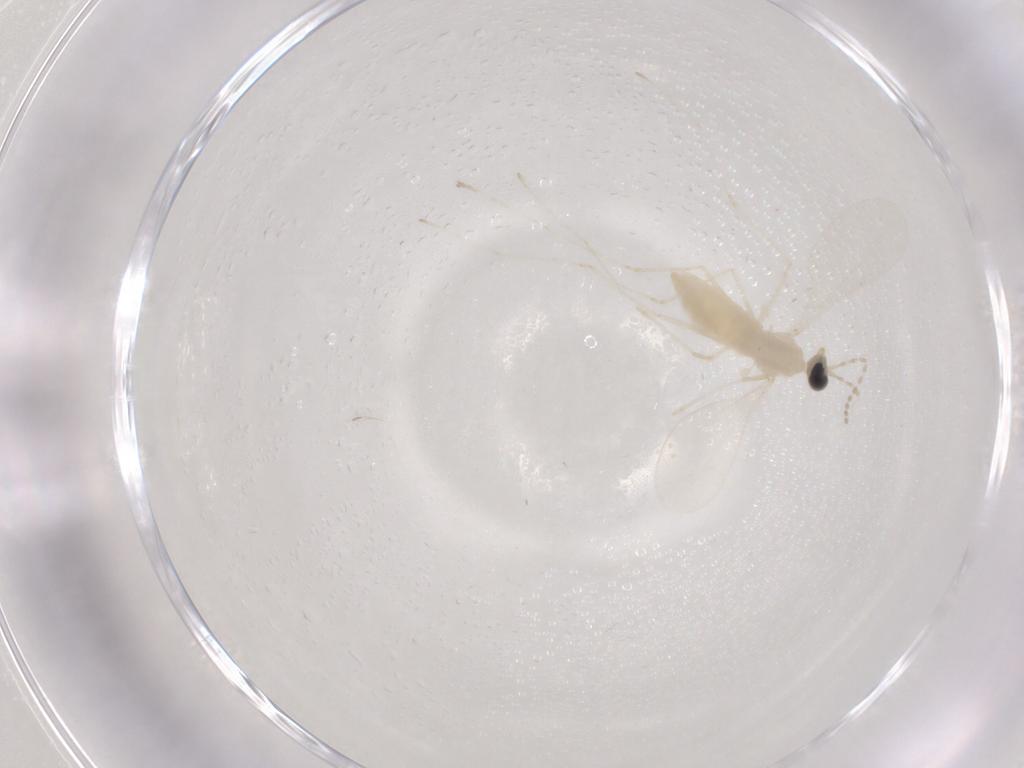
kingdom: Animalia
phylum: Arthropoda
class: Insecta
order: Diptera
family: Cecidomyiidae
